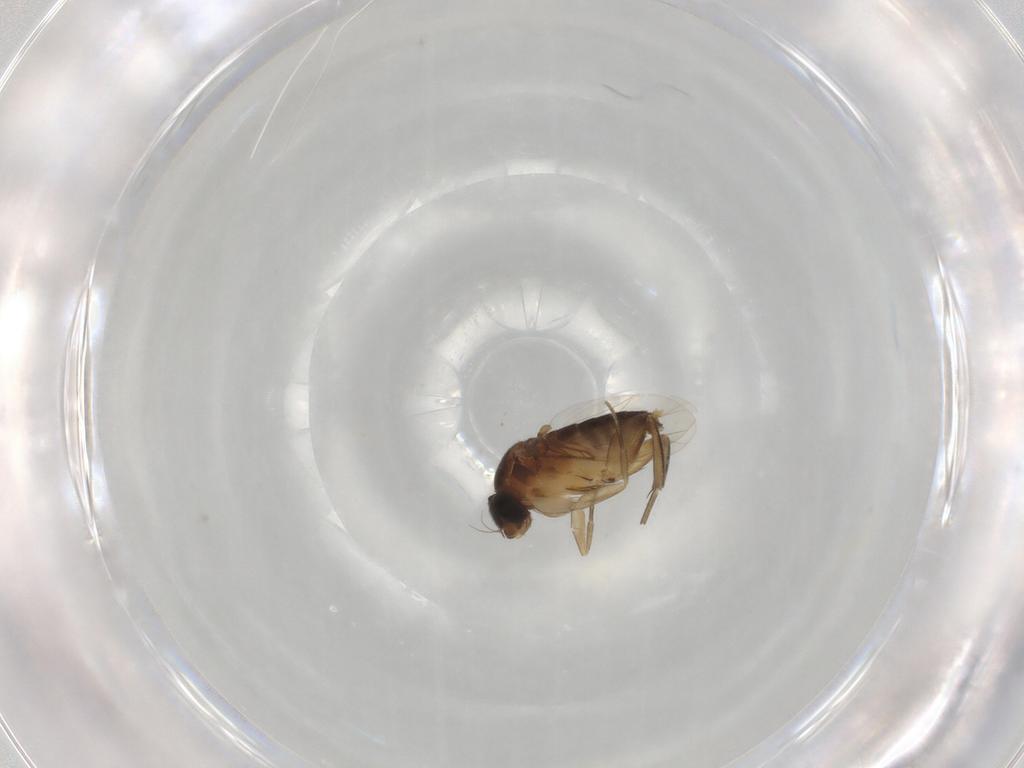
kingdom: Animalia
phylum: Arthropoda
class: Insecta
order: Diptera
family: Phoridae
